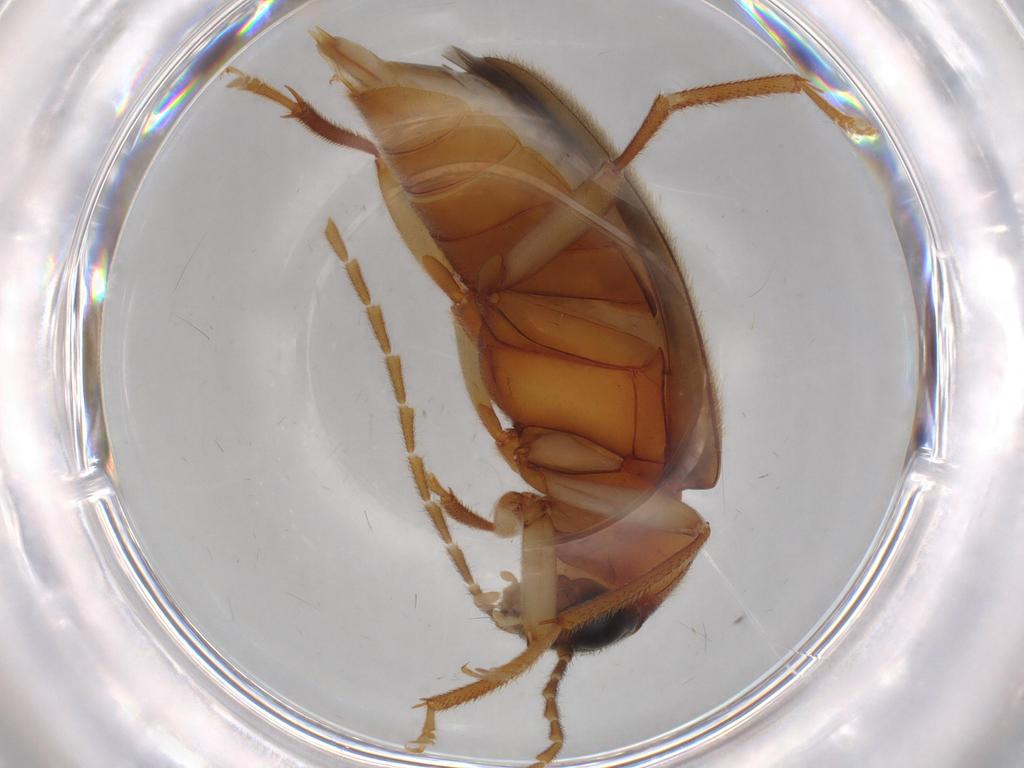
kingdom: Animalia
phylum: Arthropoda
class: Insecta
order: Coleoptera
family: Ptilodactylidae
